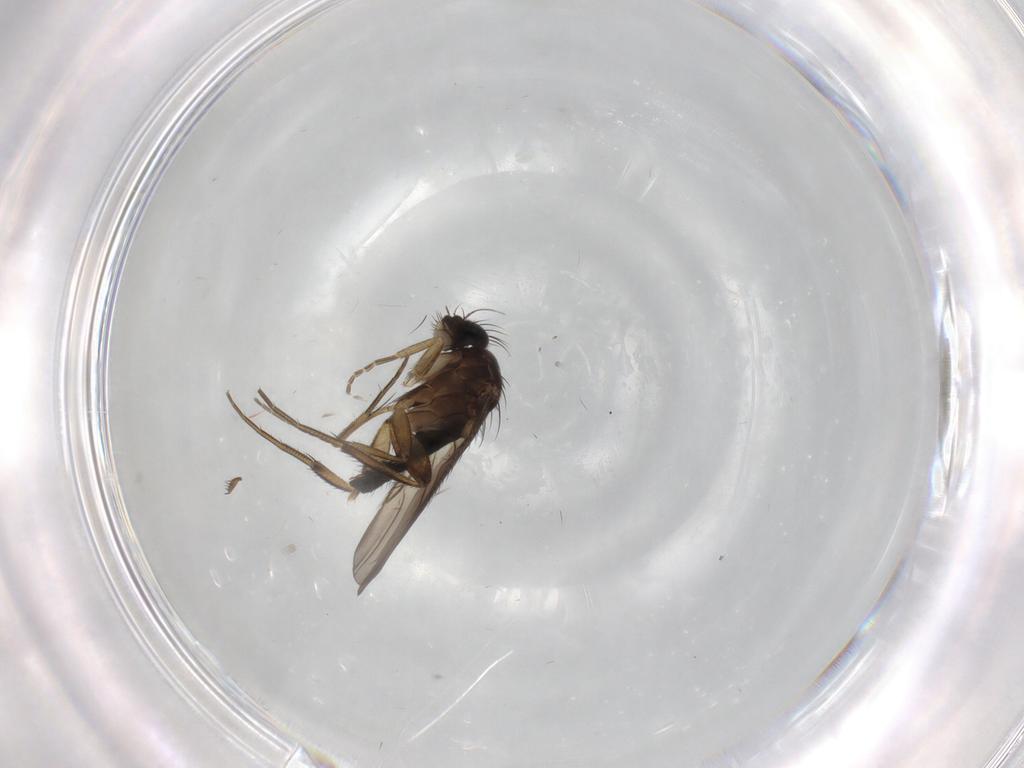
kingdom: Animalia
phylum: Arthropoda
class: Insecta
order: Diptera
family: Phoridae
